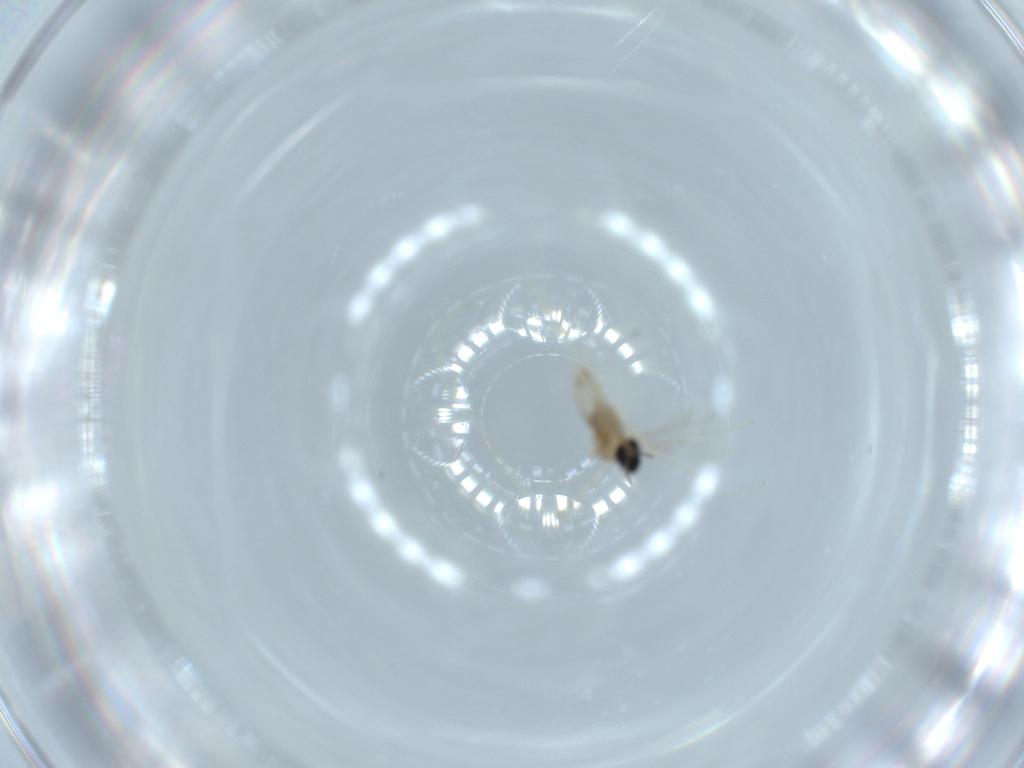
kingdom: Animalia
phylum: Arthropoda
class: Insecta
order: Diptera
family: Cecidomyiidae
